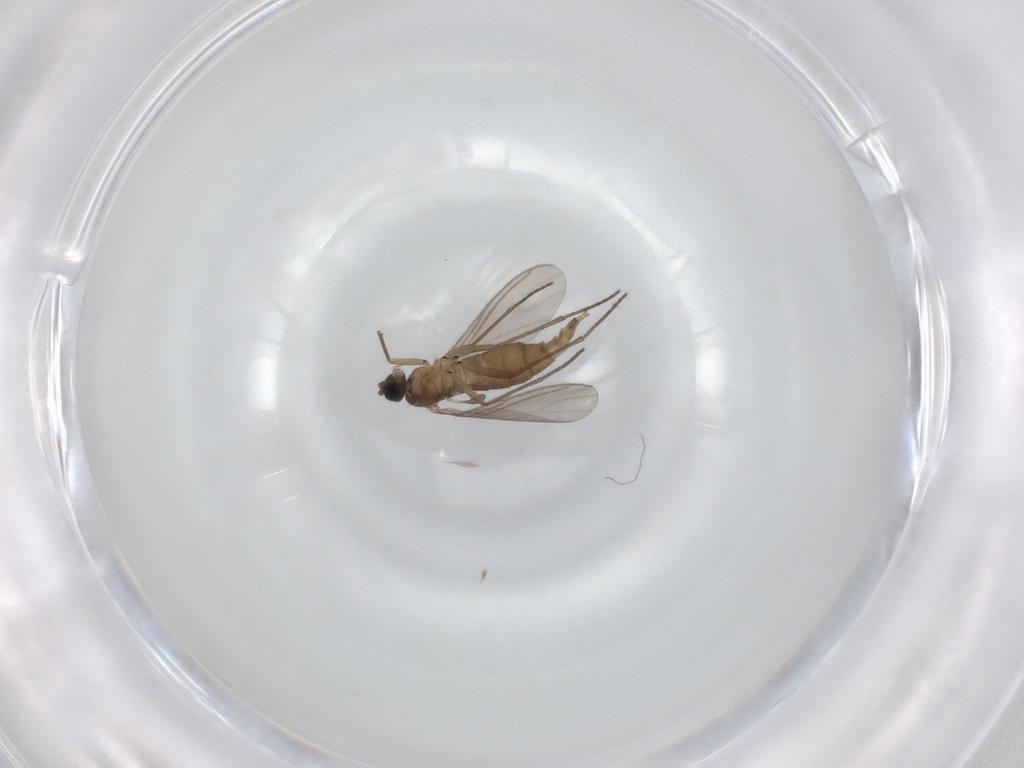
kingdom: Animalia
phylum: Arthropoda
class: Insecta
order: Diptera
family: Sciaridae
